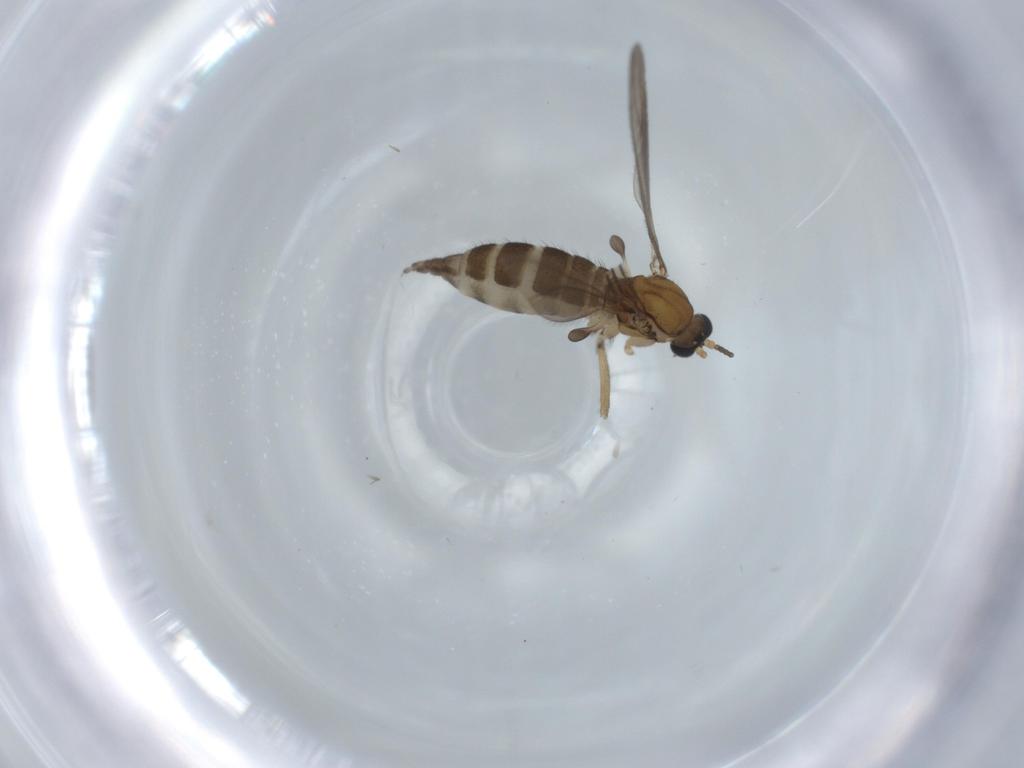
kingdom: Animalia
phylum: Arthropoda
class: Insecta
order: Diptera
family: Sciaridae
